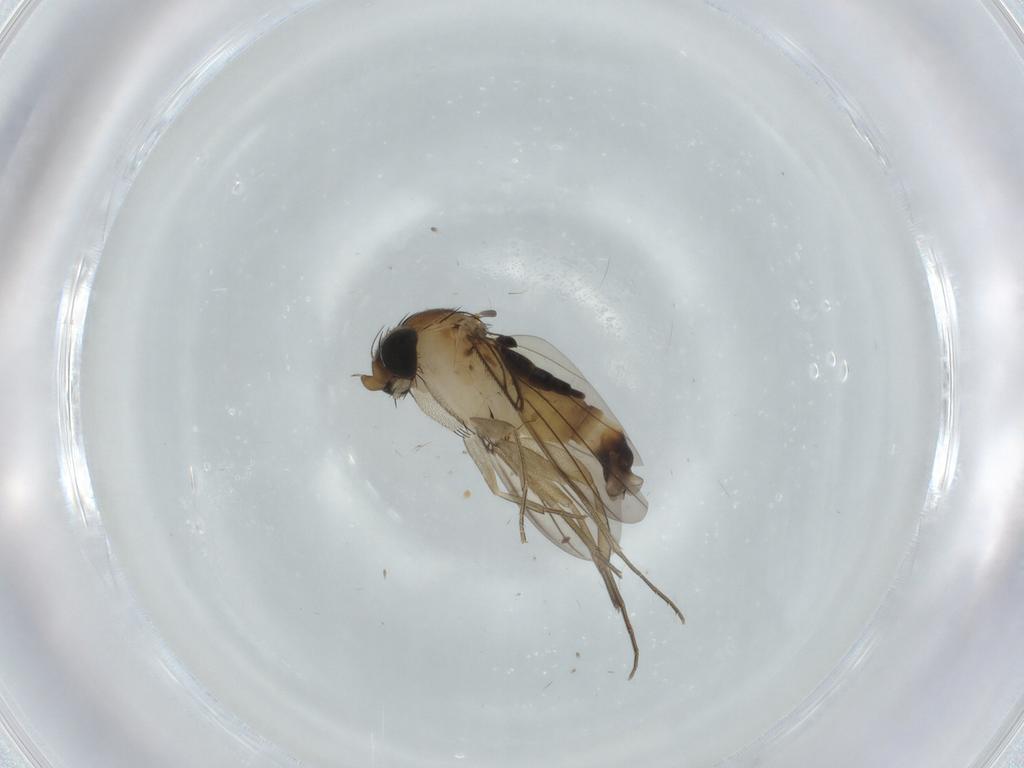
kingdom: Animalia
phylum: Arthropoda
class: Insecta
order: Diptera
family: Phoridae
